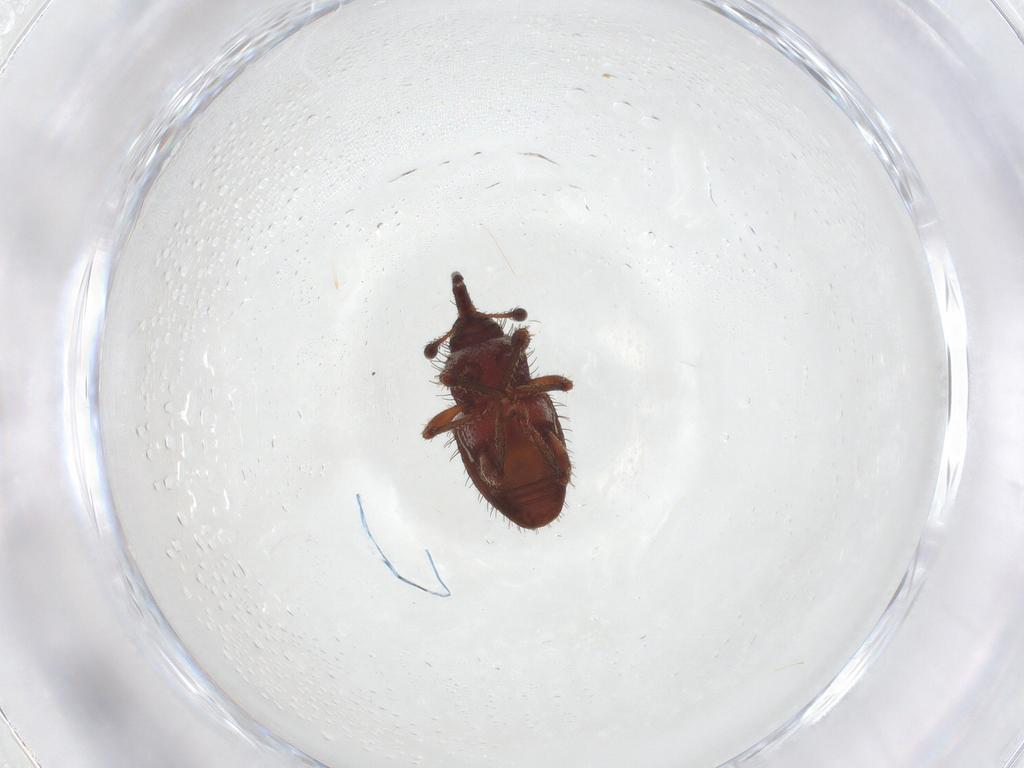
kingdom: Animalia
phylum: Arthropoda
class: Insecta
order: Coleoptera
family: Curculionidae
